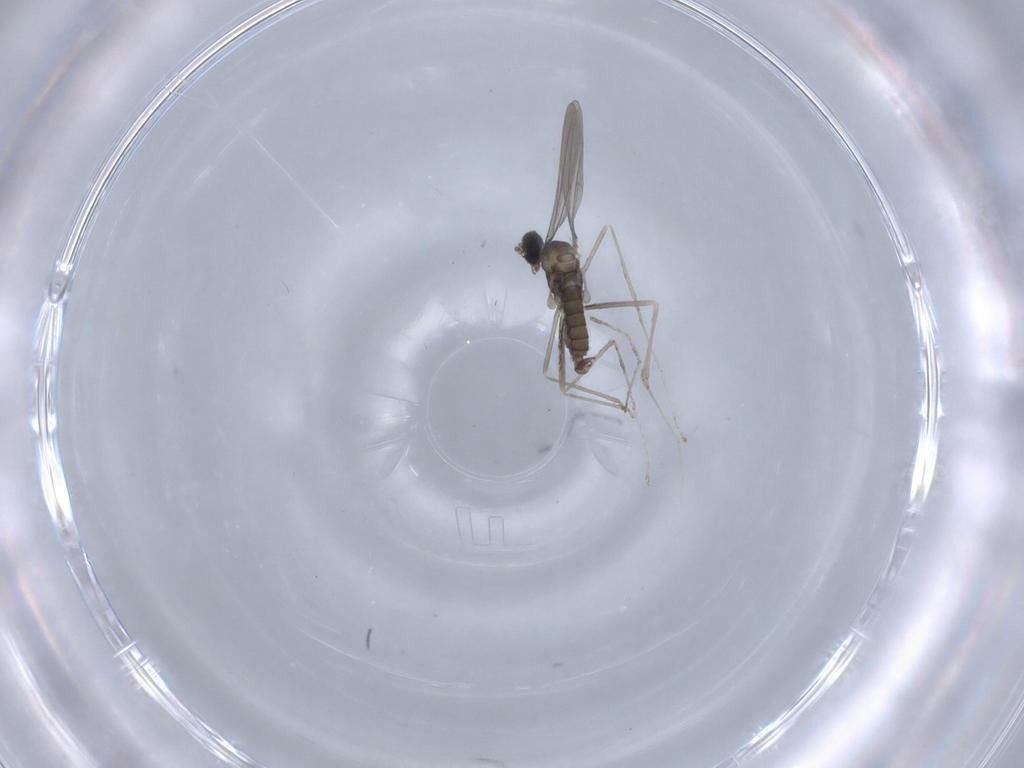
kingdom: Animalia
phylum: Arthropoda
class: Insecta
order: Diptera
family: Cecidomyiidae
